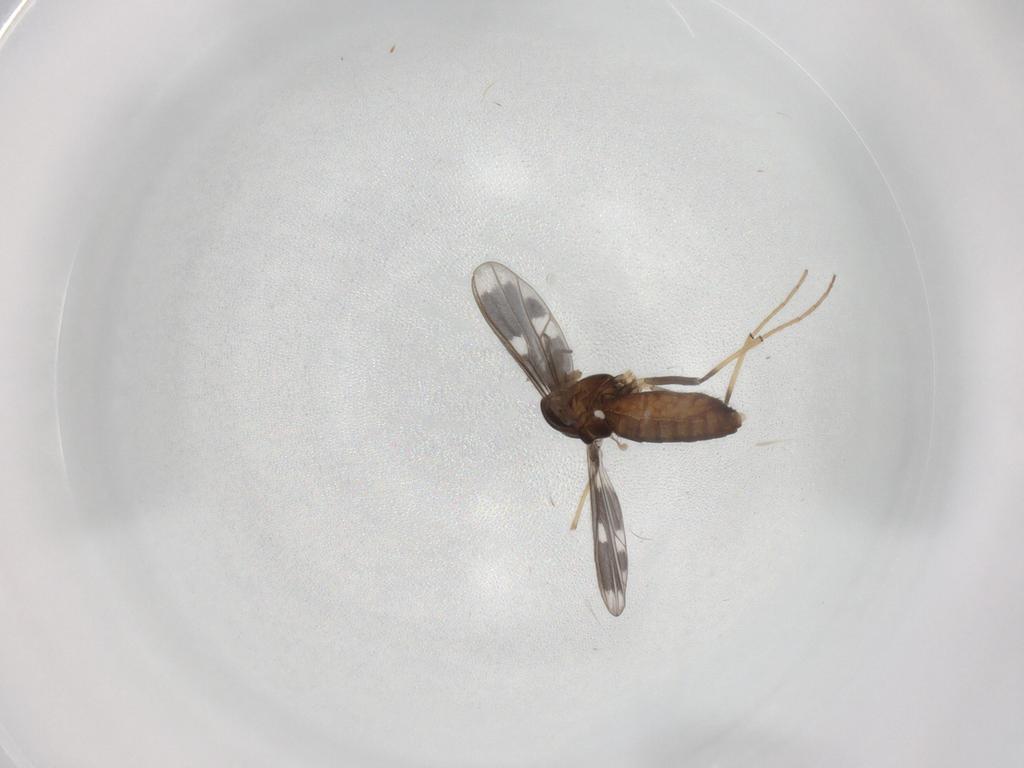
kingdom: Animalia
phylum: Arthropoda
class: Insecta
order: Diptera
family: Chironomidae
